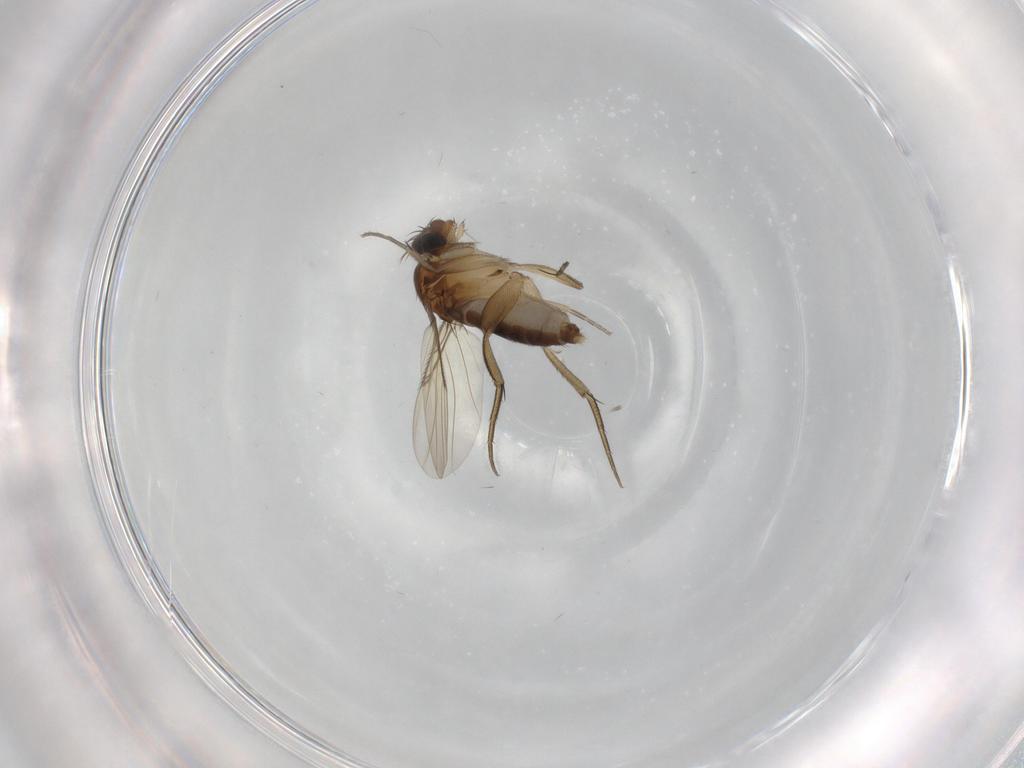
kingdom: Animalia
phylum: Arthropoda
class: Insecta
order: Diptera
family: Phoridae
